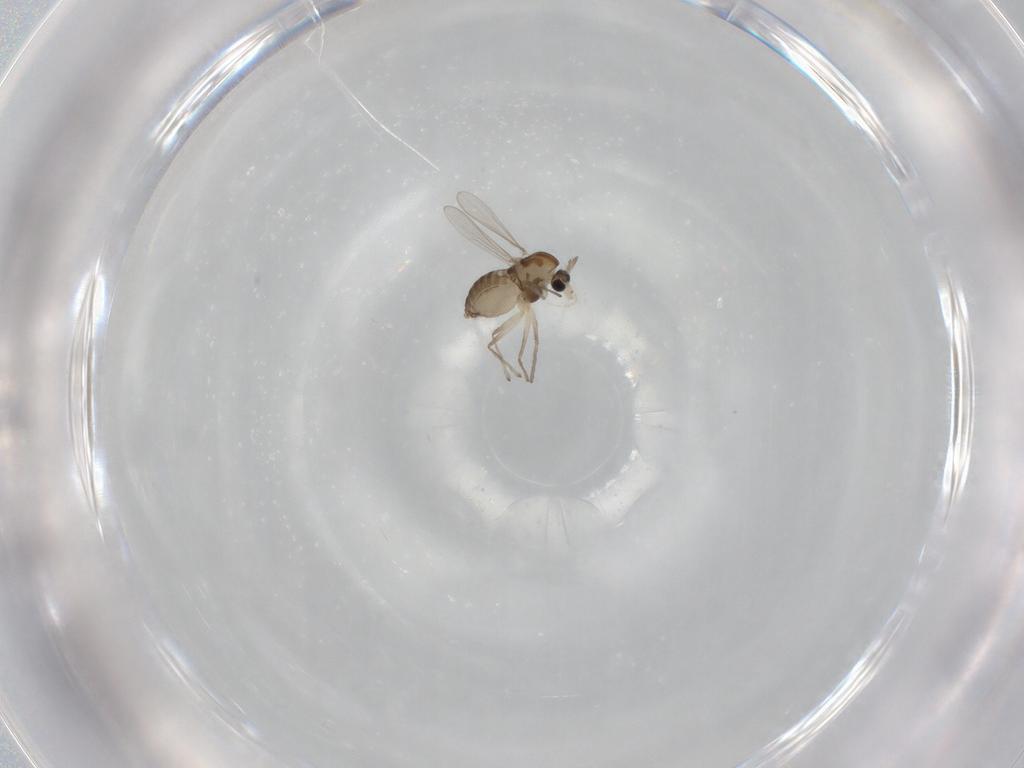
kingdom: Animalia
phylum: Arthropoda
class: Insecta
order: Diptera
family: Chironomidae
